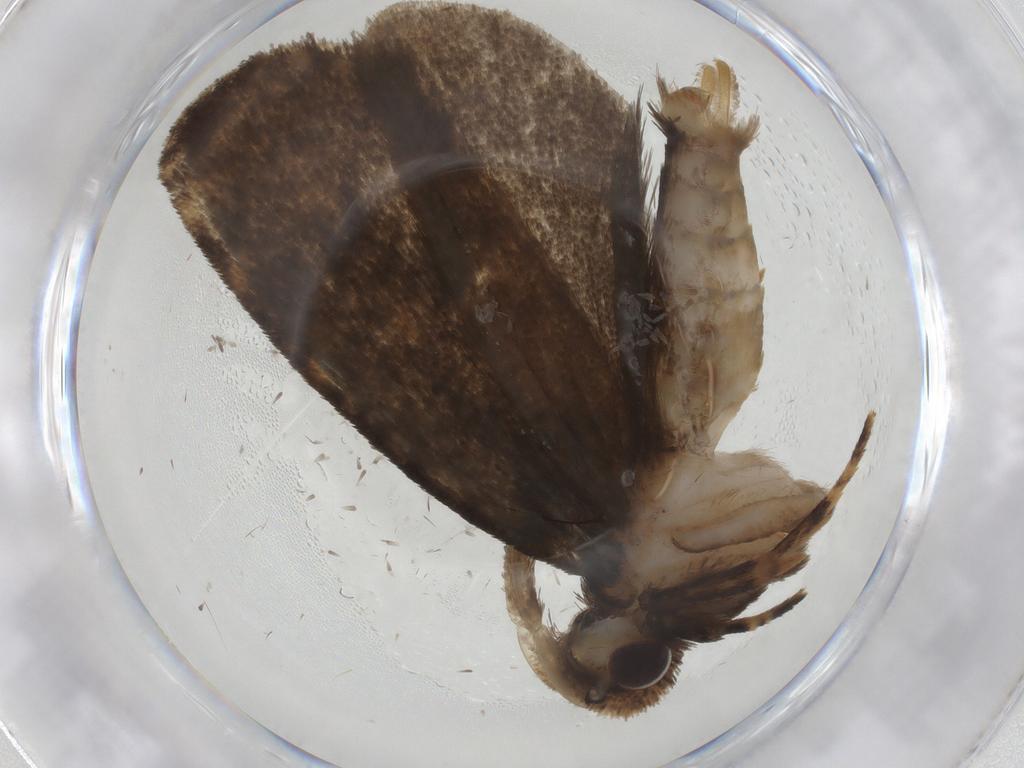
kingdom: Animalia
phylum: Arthropoda
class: Insecta
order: Lepidoptera
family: Tineidae
